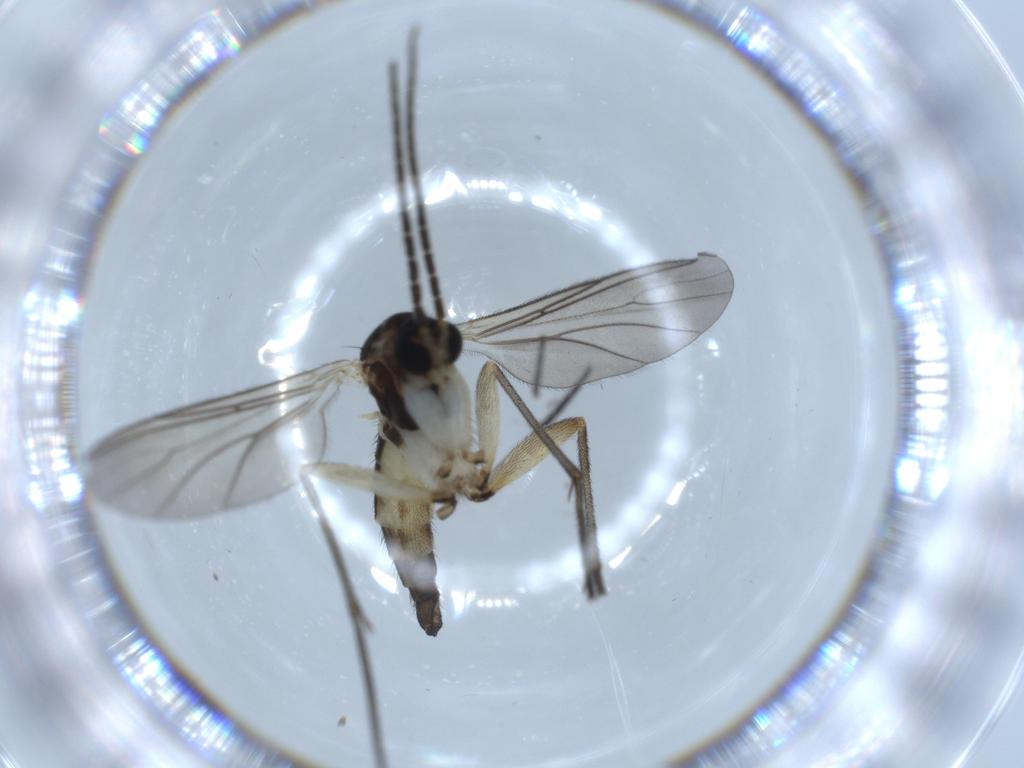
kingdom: Animalia
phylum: Arthropoda
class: Insecta
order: Diptera
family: Sciaridae
